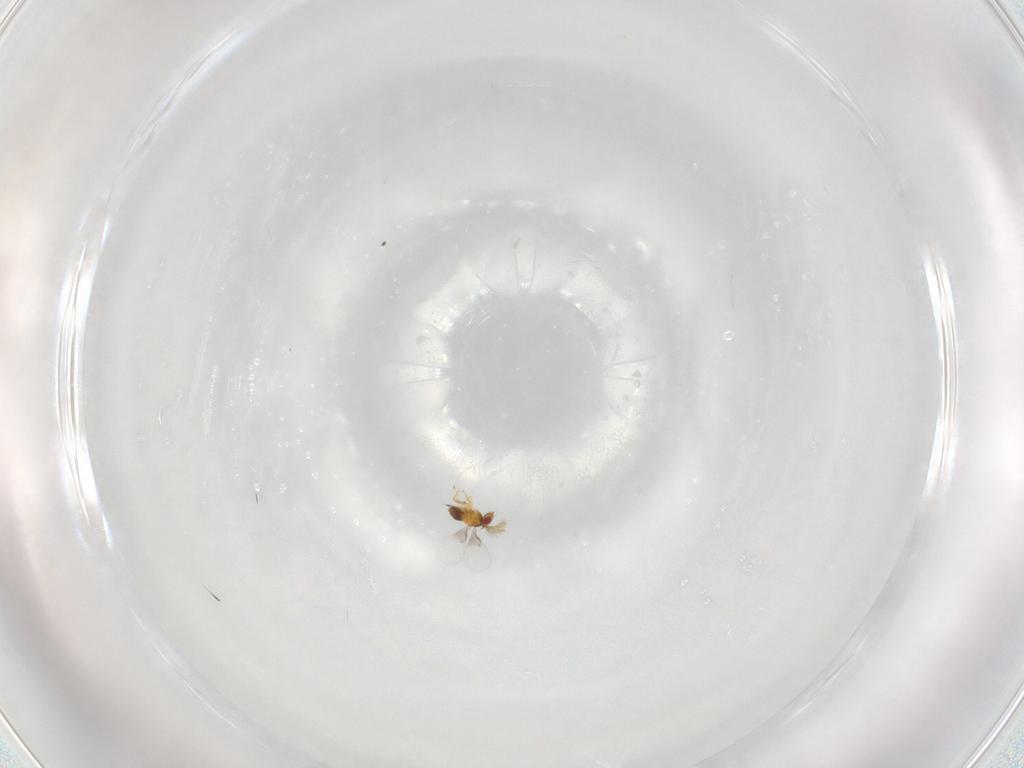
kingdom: Animalia
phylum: Arthropoda
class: Insecta
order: Hymenoptera
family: Trichogrammatidae
